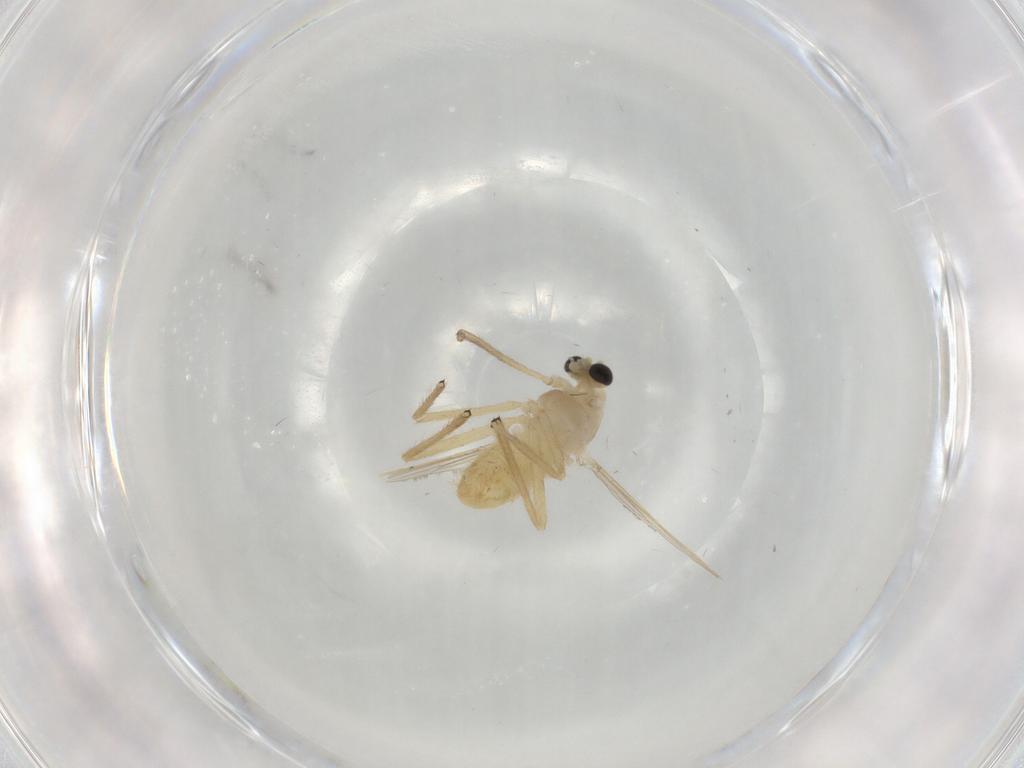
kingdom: Animalia
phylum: Arthropoda
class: Insecta
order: Diptera
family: Chironomidae
